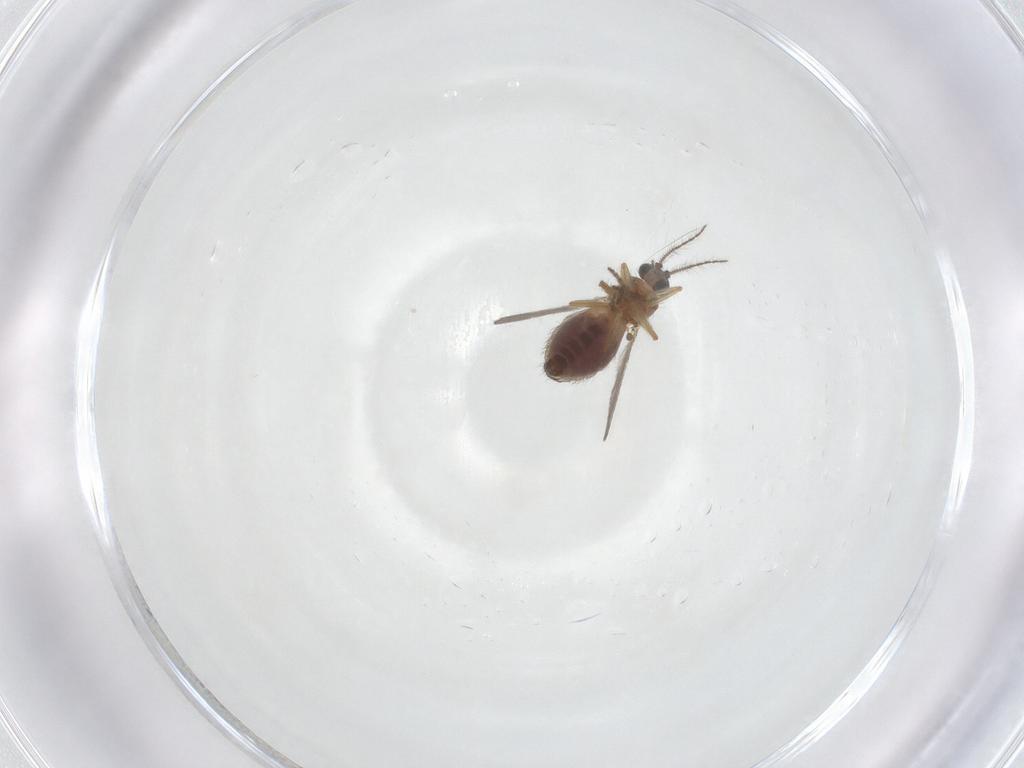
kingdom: Animalia
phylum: Arthropoda
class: Insecta
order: Diptera
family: Ceratopogonidae
